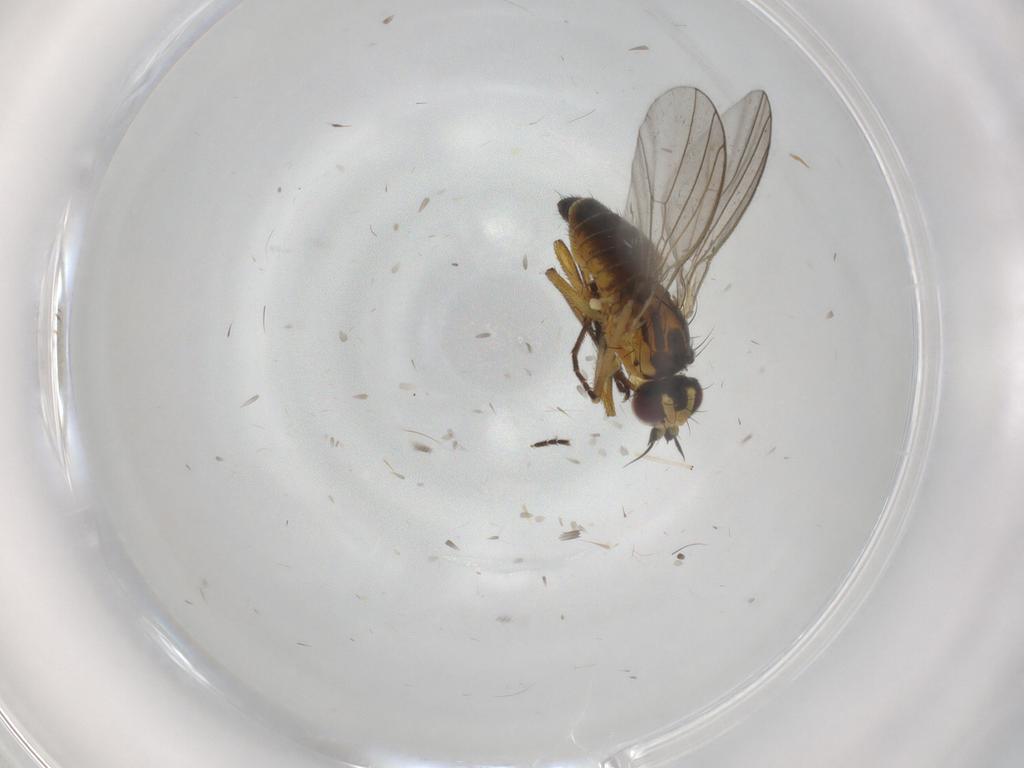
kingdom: Animalia
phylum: Arthropoda
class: Insecta
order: Diptera
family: Agromyzidae
